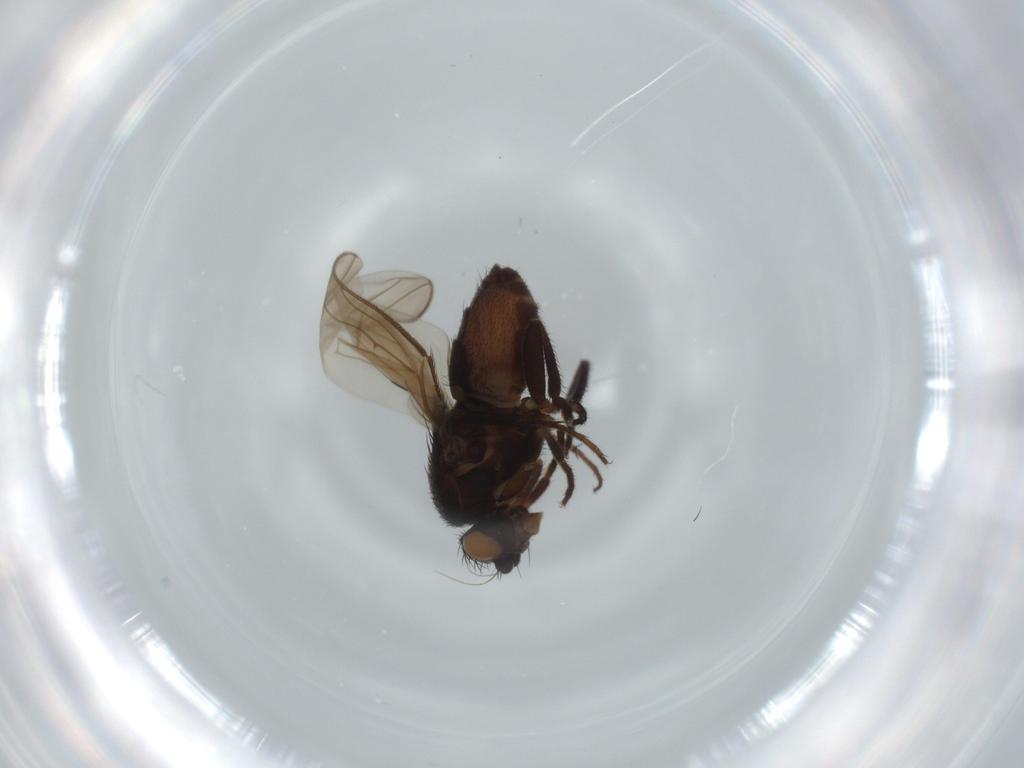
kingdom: Animalia
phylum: Arthropoda
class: Insecta
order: Diptera
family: Sphaeroceridae
